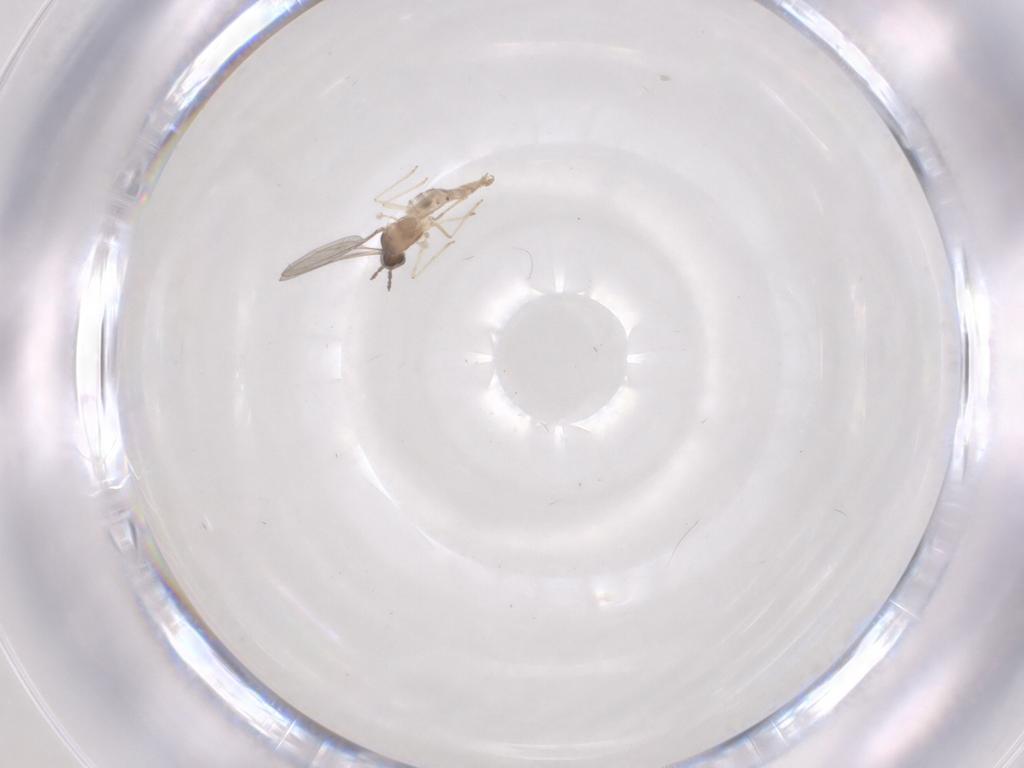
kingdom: Animalia
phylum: Arthropoda
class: Insecta
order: Diptera
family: Cecidomyiidae
